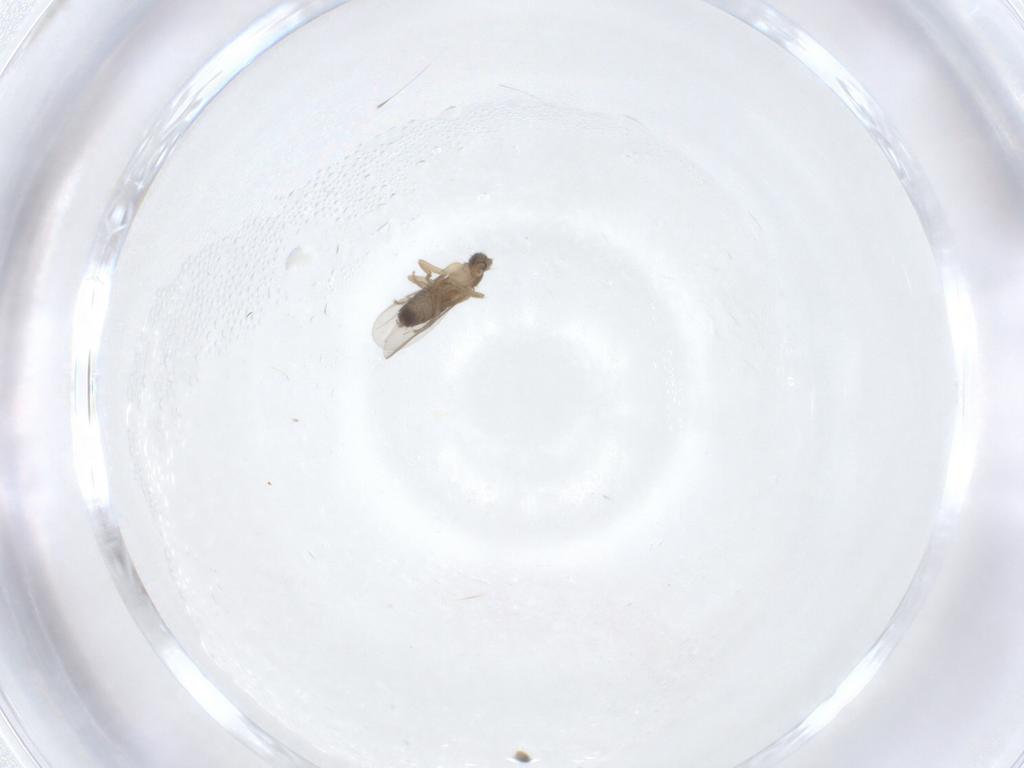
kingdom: Animalia
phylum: Arthropoda
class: Insecta
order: Diptera
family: Phoridae
